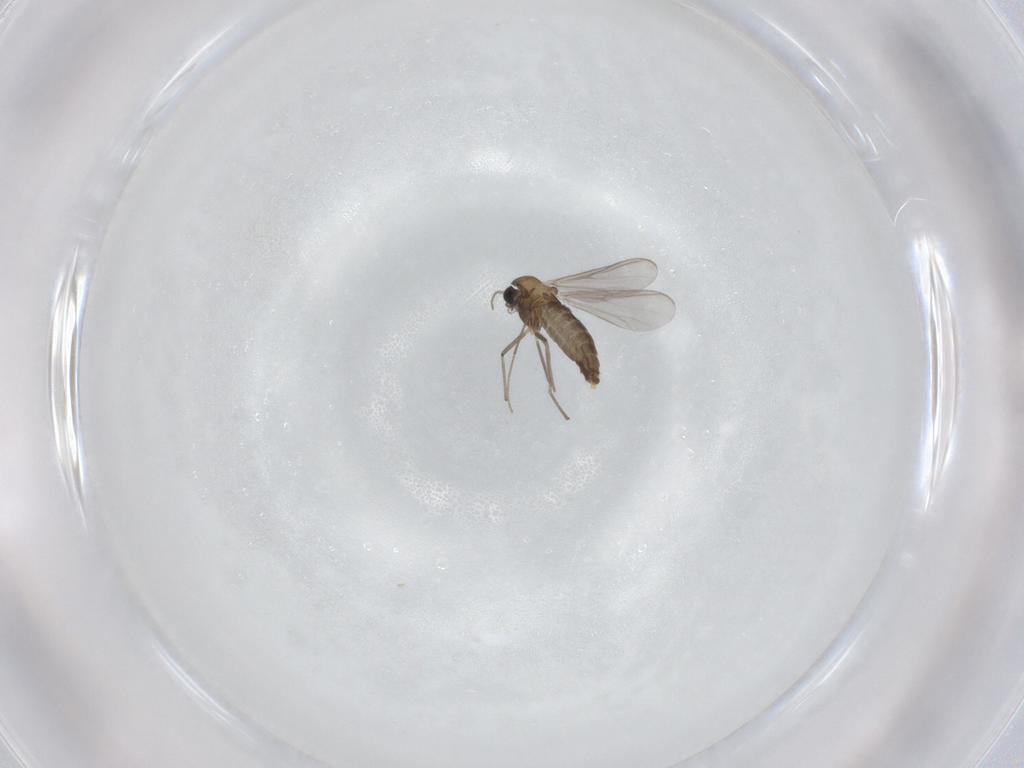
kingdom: Animalia
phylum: Arthropoda
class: Insecta
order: Diptera
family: Chironomidae
